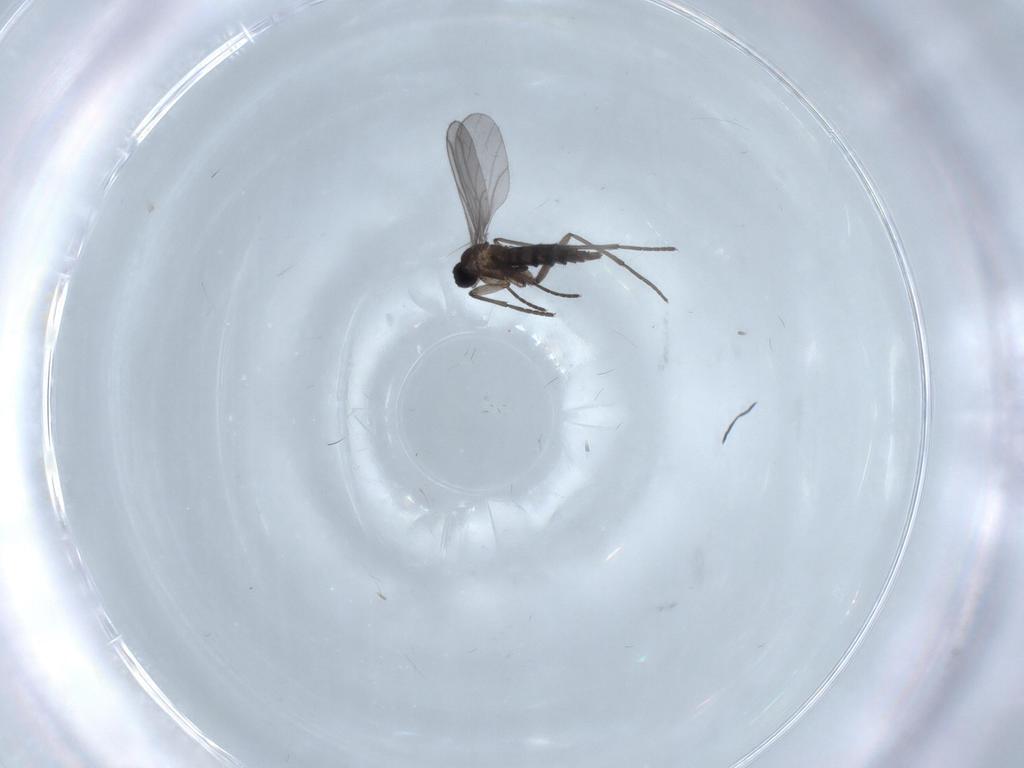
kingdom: Animalia
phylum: Arthropoda
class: Insecta
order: Diptera
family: Sciaridae
